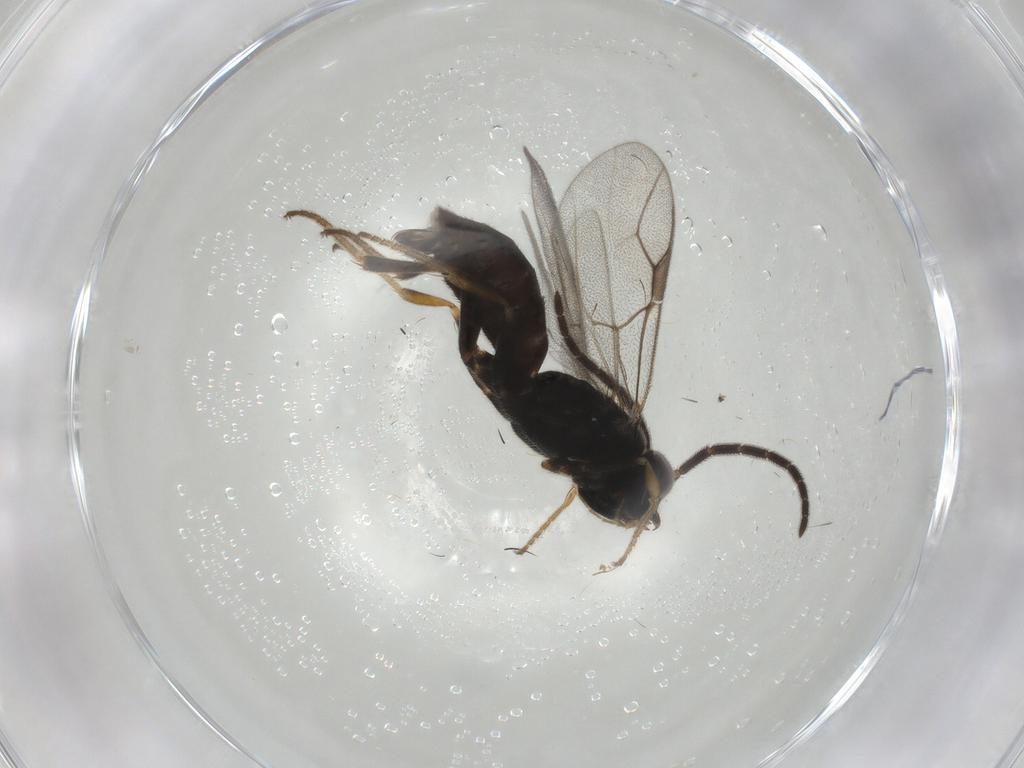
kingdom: Animalia
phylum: Arthropoda
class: Insecta
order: Hymenoptera
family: Dryinidae
